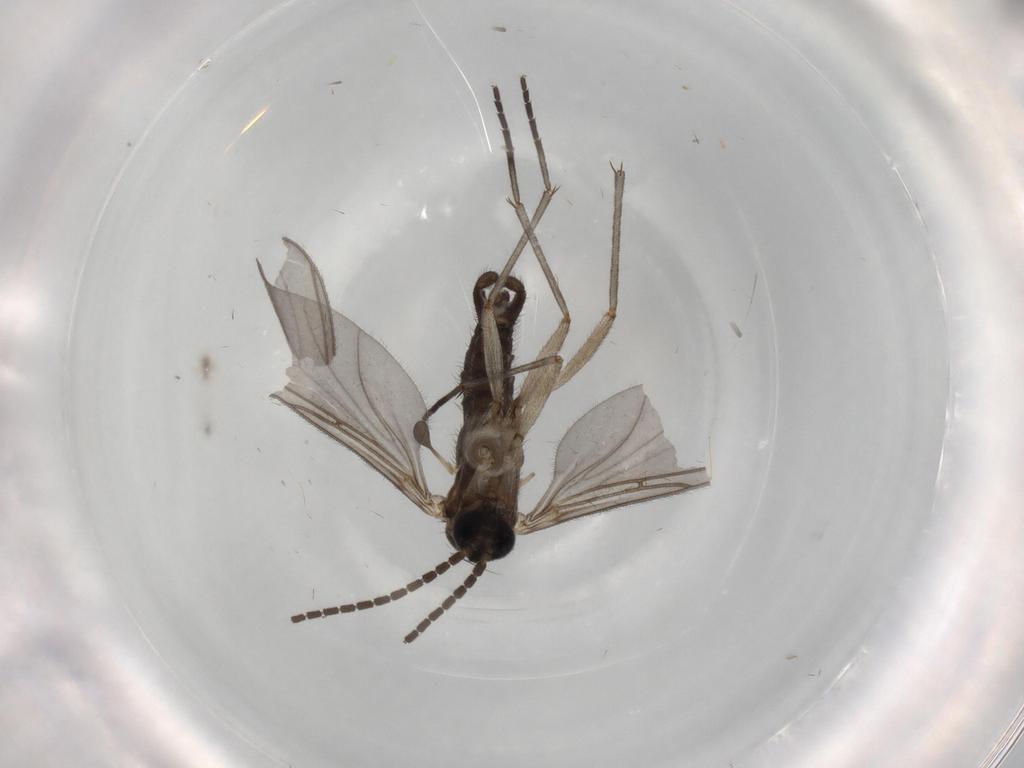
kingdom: Animalia
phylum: Arthropoda
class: Insecta
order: Diptera
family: Sciaridae
